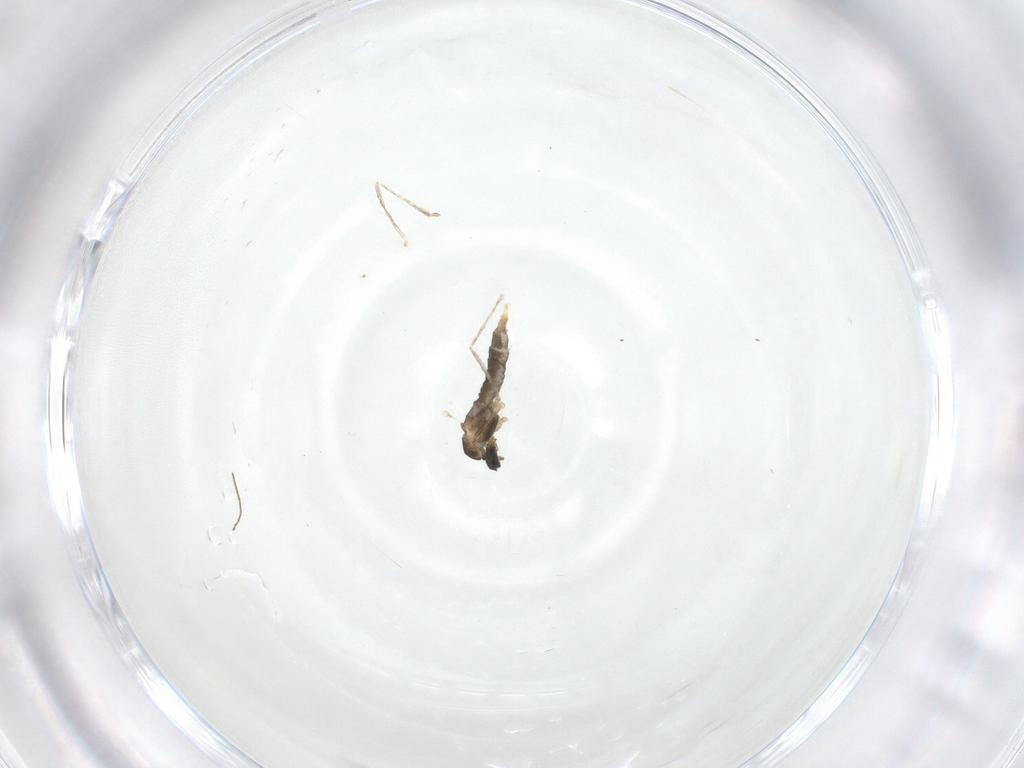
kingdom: Animalia
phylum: Arthropoda
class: Insecta
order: Diptera
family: Cecidomyiidae
